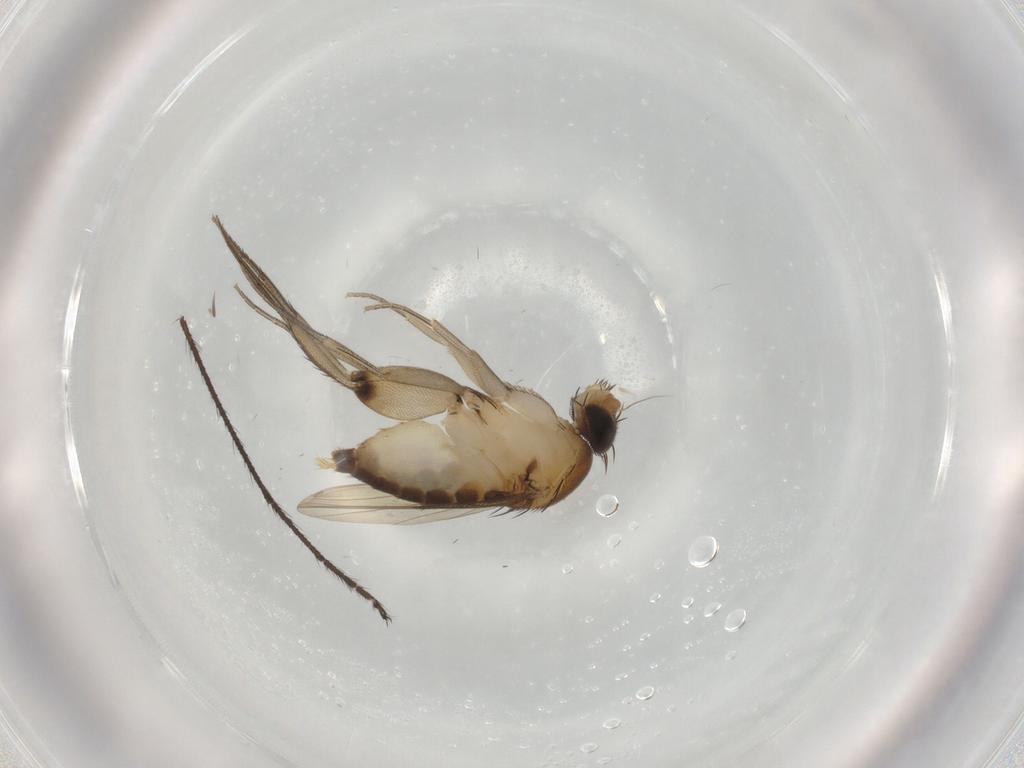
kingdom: Animalia
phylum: Arthropoda
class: Insecta
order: Diptera
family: Phoridae
